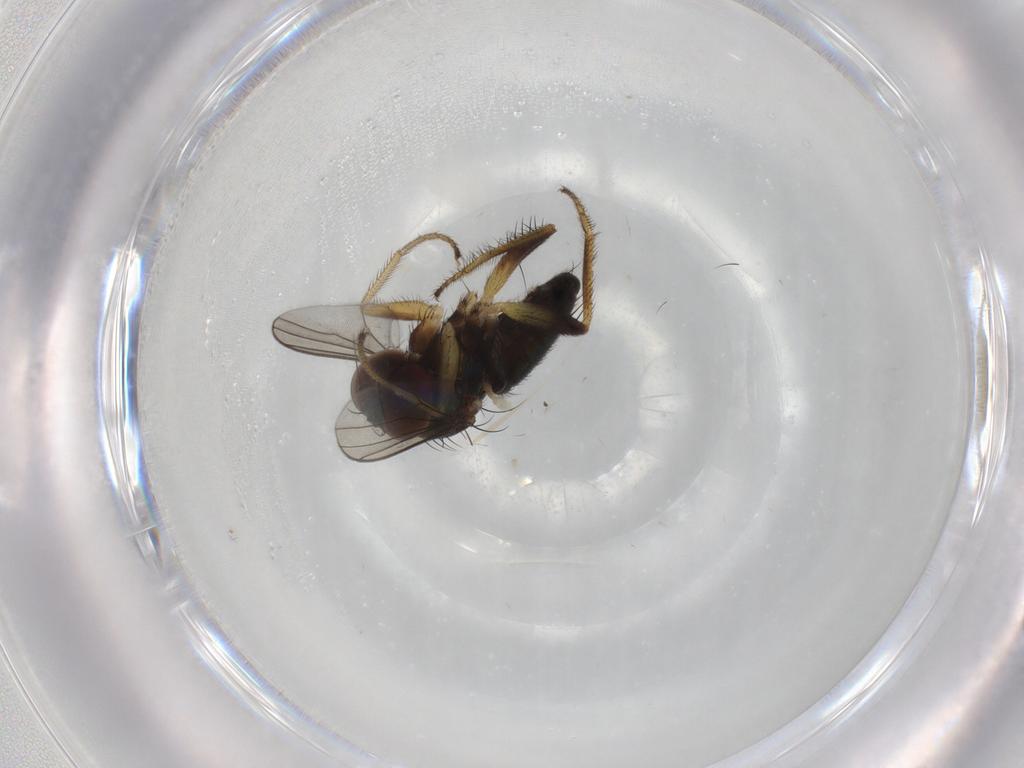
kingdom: Animalia
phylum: Arthropoda
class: Insecta
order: Diptera
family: Dolichopodidae
